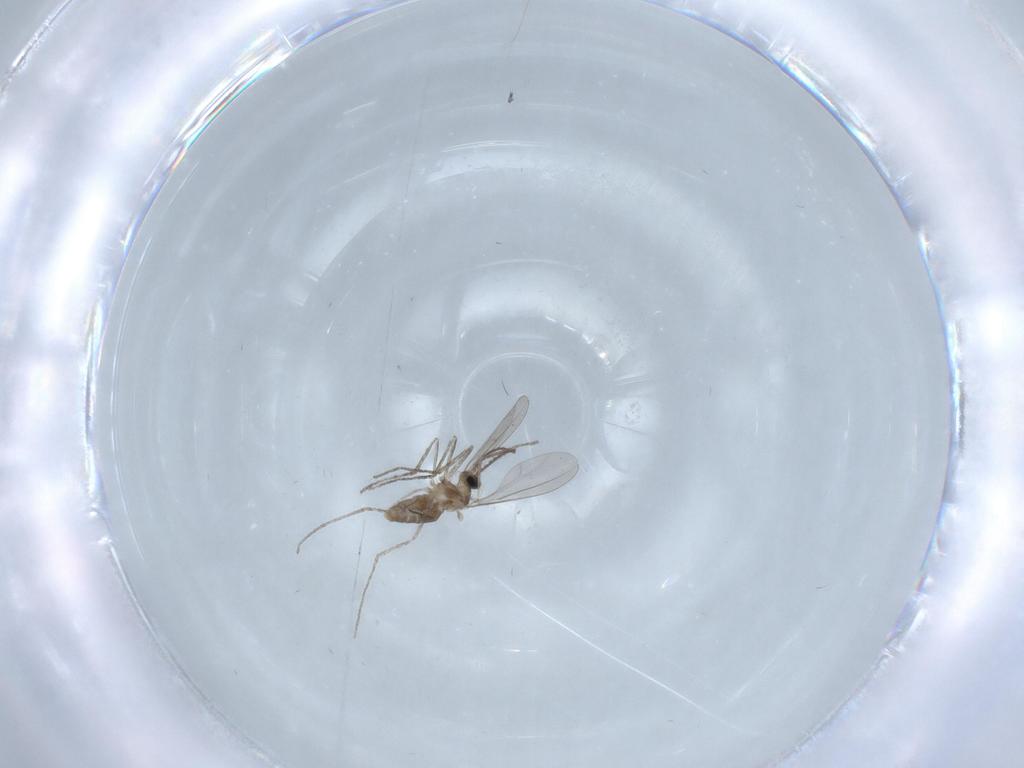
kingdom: Animalia
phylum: Arthropoda
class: Insecta
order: Diptera
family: Cecidomyiidae
